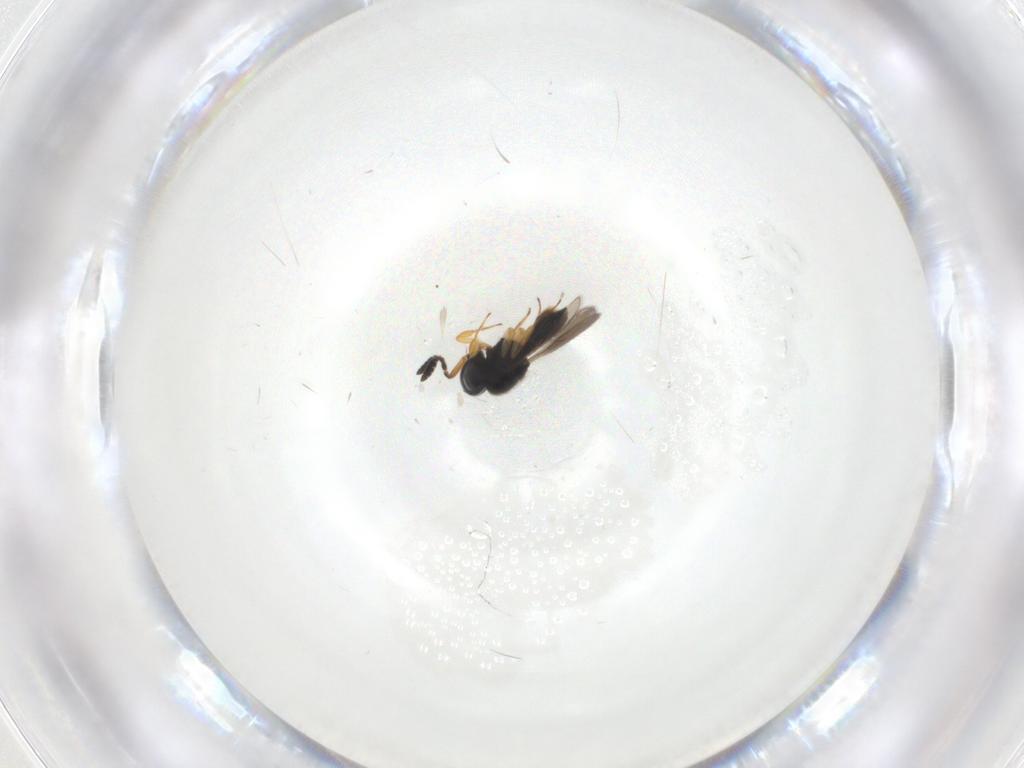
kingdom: Animalia
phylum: Arthropoda
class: Insecta
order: Hymenoptera
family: Scelionidae
